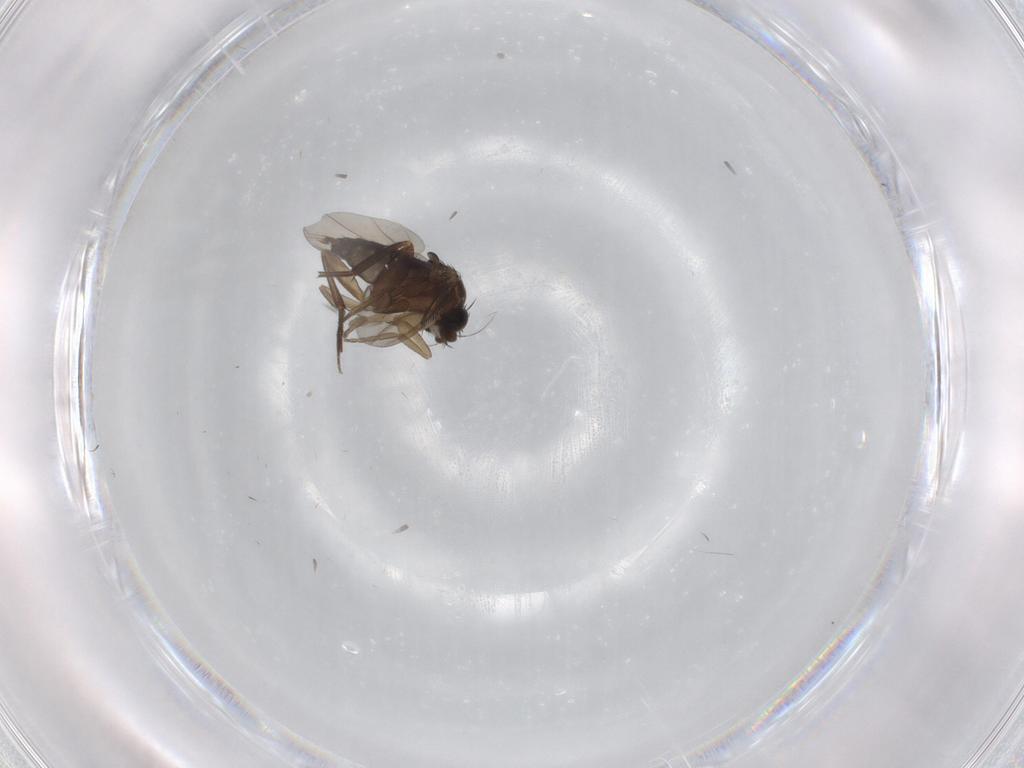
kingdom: Animalia
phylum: Arthropoda
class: Insecta
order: Diptera
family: Phoridae
